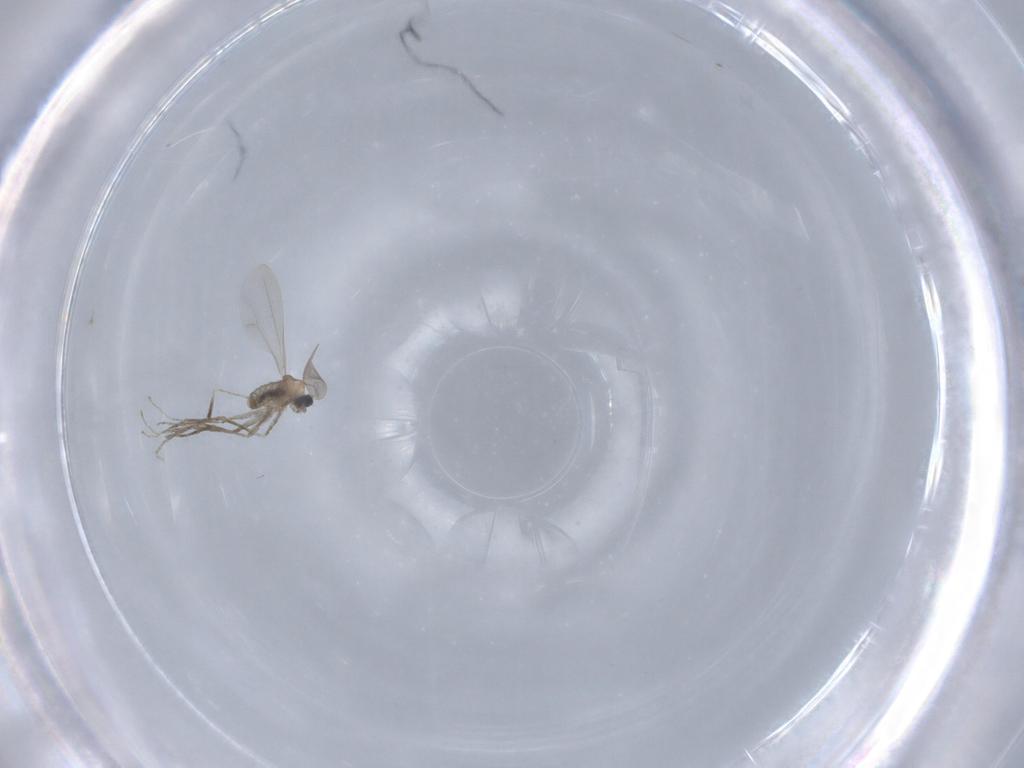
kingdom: Animalia
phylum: Arthropoda
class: Insecta
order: Diptera
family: Cecidomyiidae
